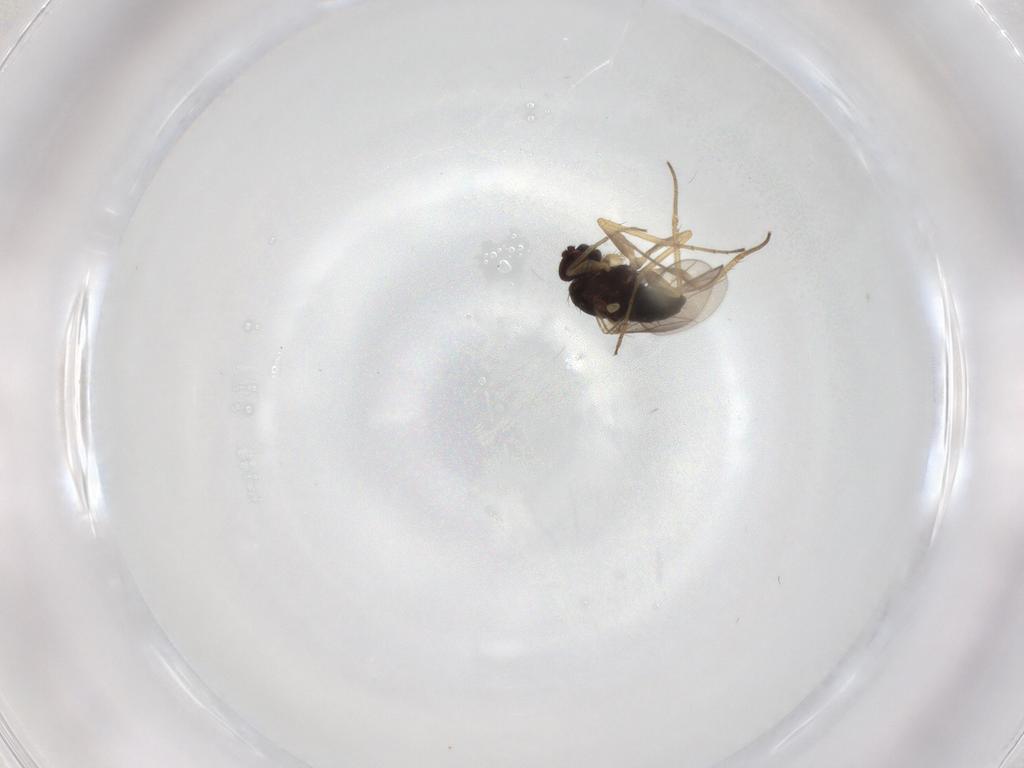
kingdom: Animalia
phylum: Arthropoda
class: Insecta
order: Diptera
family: Dolichopodidae
